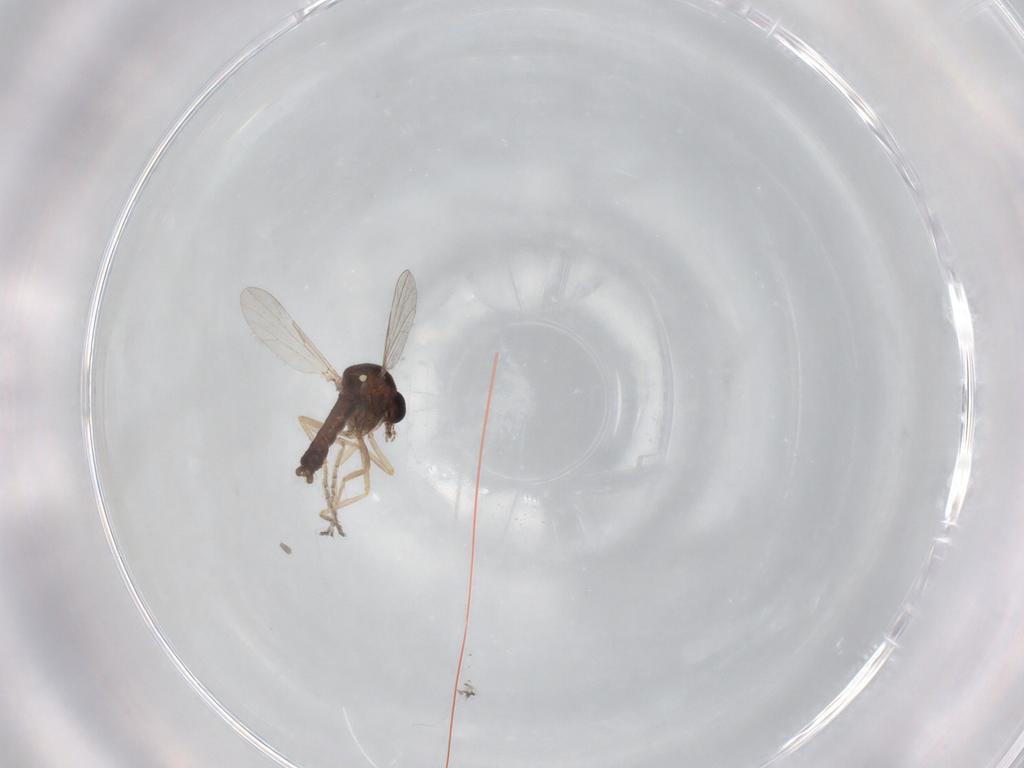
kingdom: Animalia
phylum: Arthropoda
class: Insecta
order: Diptera
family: Ceratopogonidae
